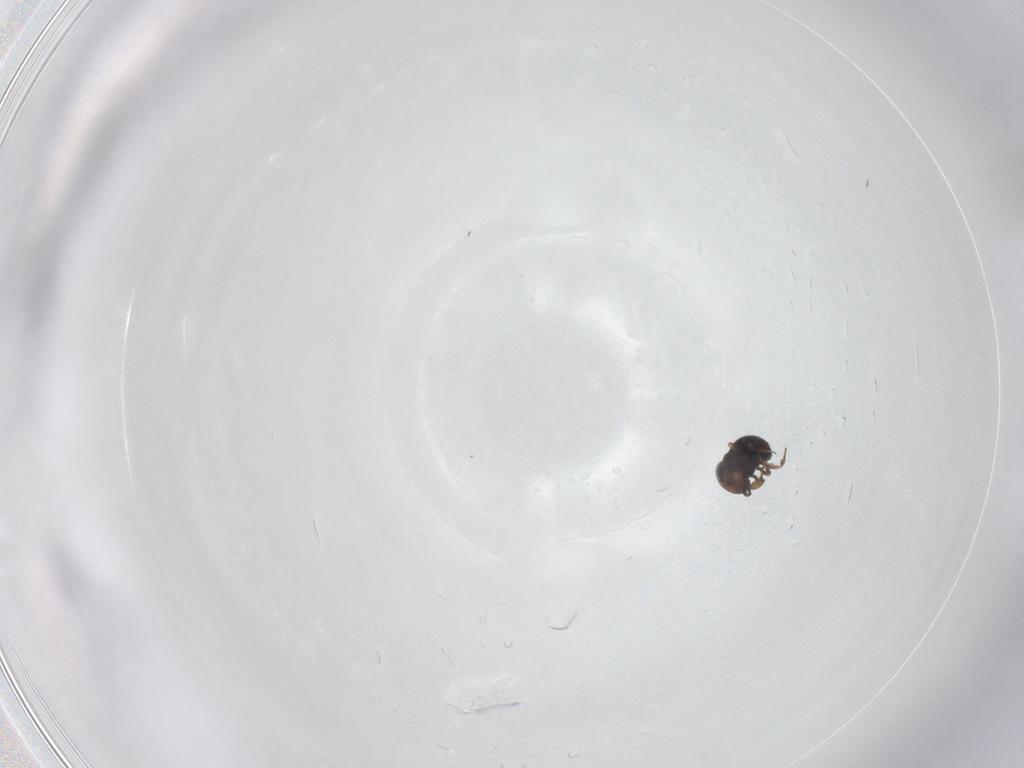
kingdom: Animalia
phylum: Arthropoda
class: Insecta
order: Hymenoptera
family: Scelionidae
